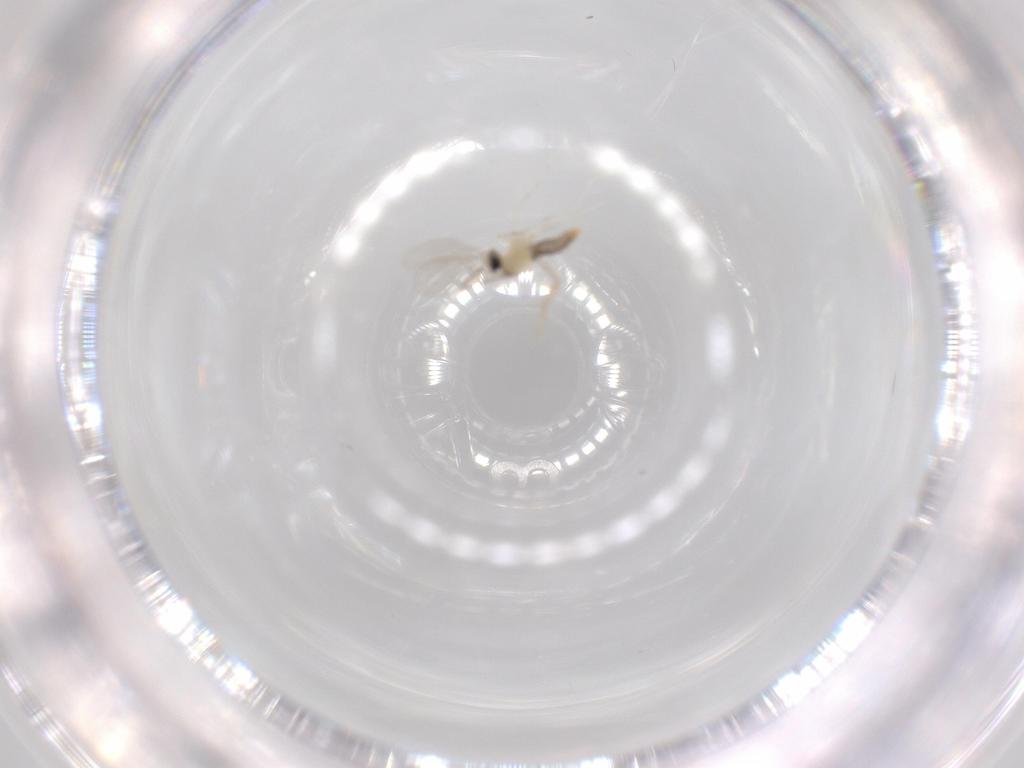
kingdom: Animalia
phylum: Arthropoda
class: Insecta
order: Diptera
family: Chironomidae
